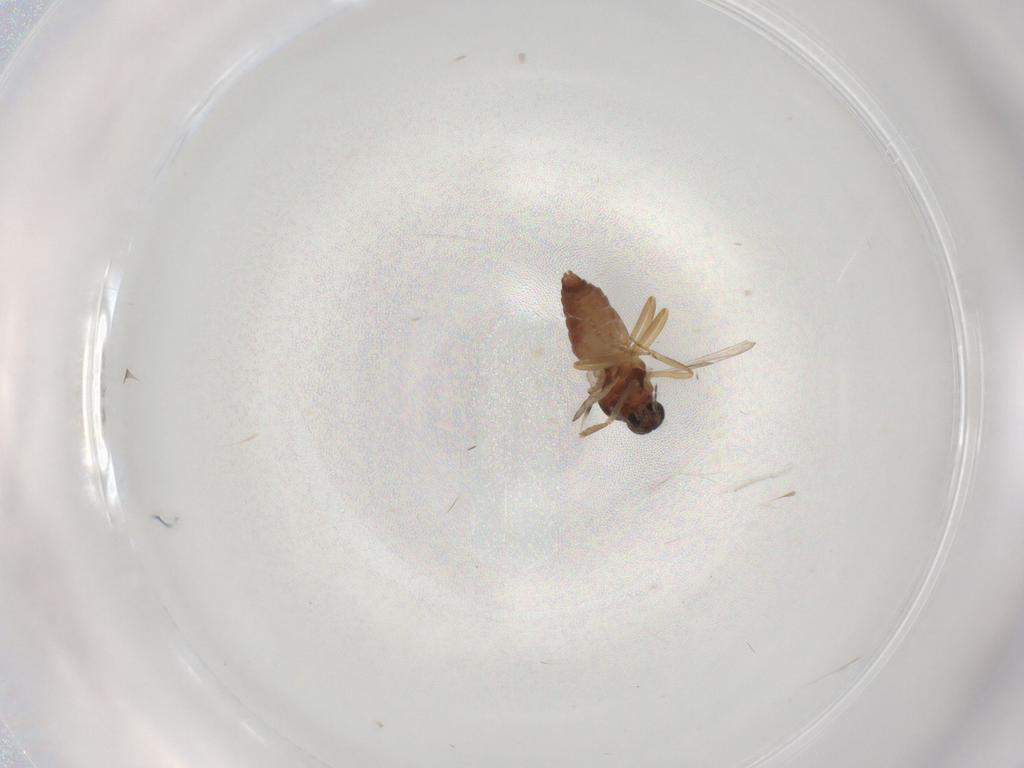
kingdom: Animalia
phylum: Arthropoda
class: Insecta
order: Diptera
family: Ceratopogonidae
